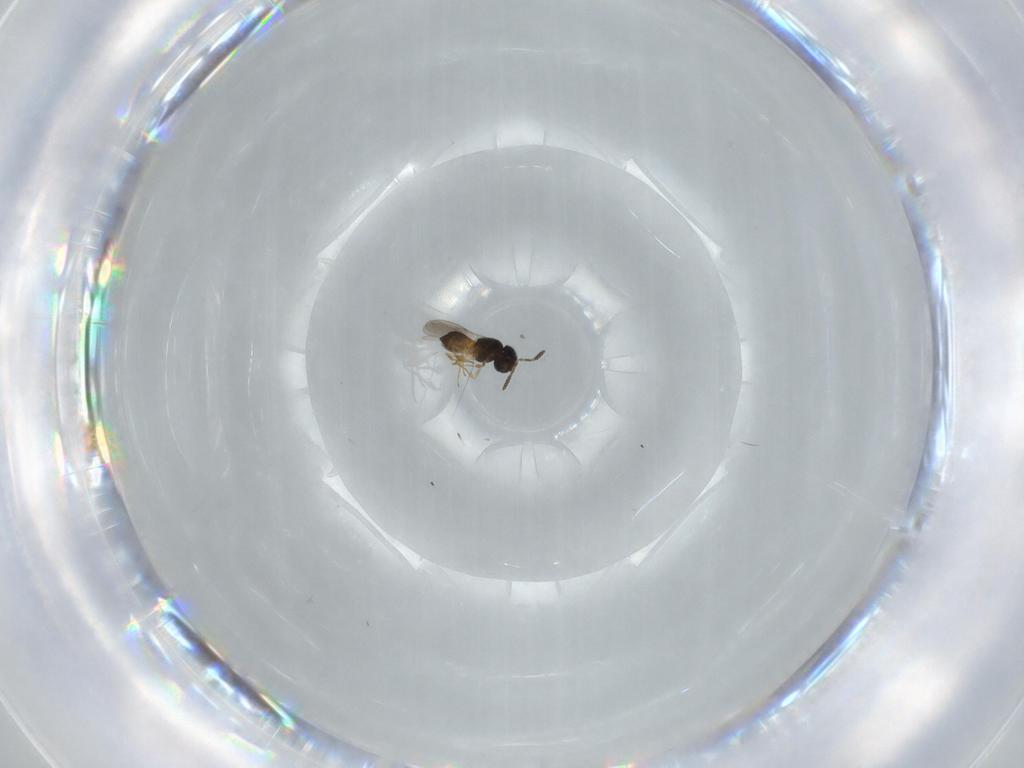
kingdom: Animalia
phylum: Arthropoda
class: Insecta
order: Hymenoptera
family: Scelionidae
